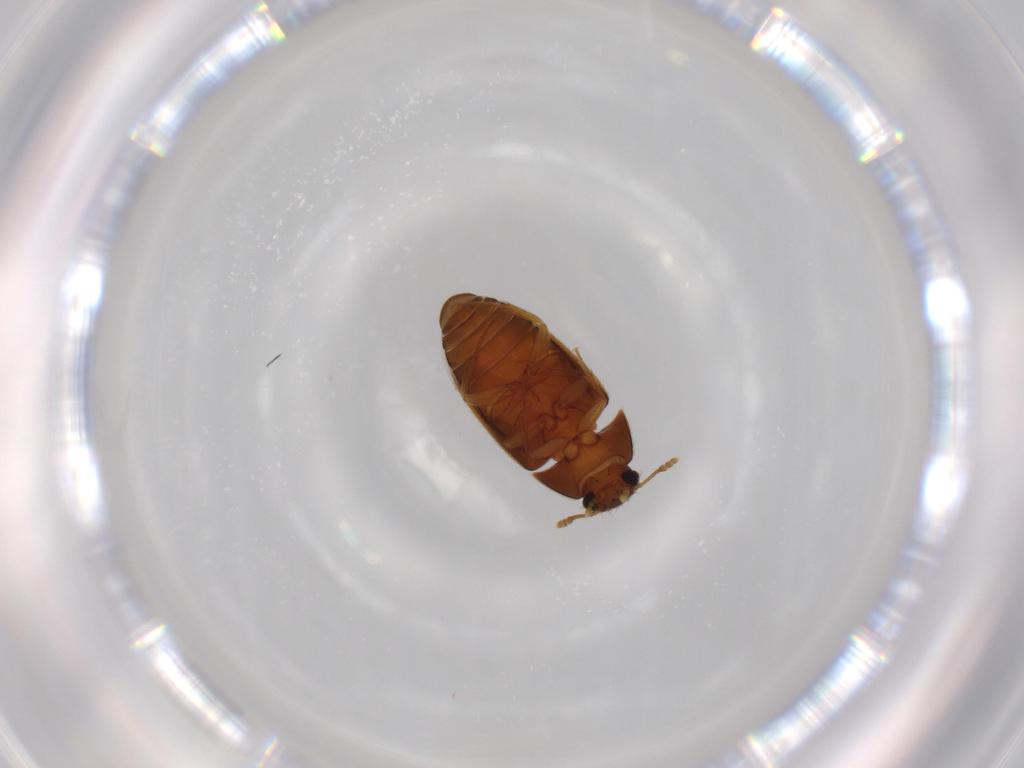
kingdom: Animalia
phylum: Arthropoda
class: Insecta
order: Coleoptera
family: Mycetophagidae
